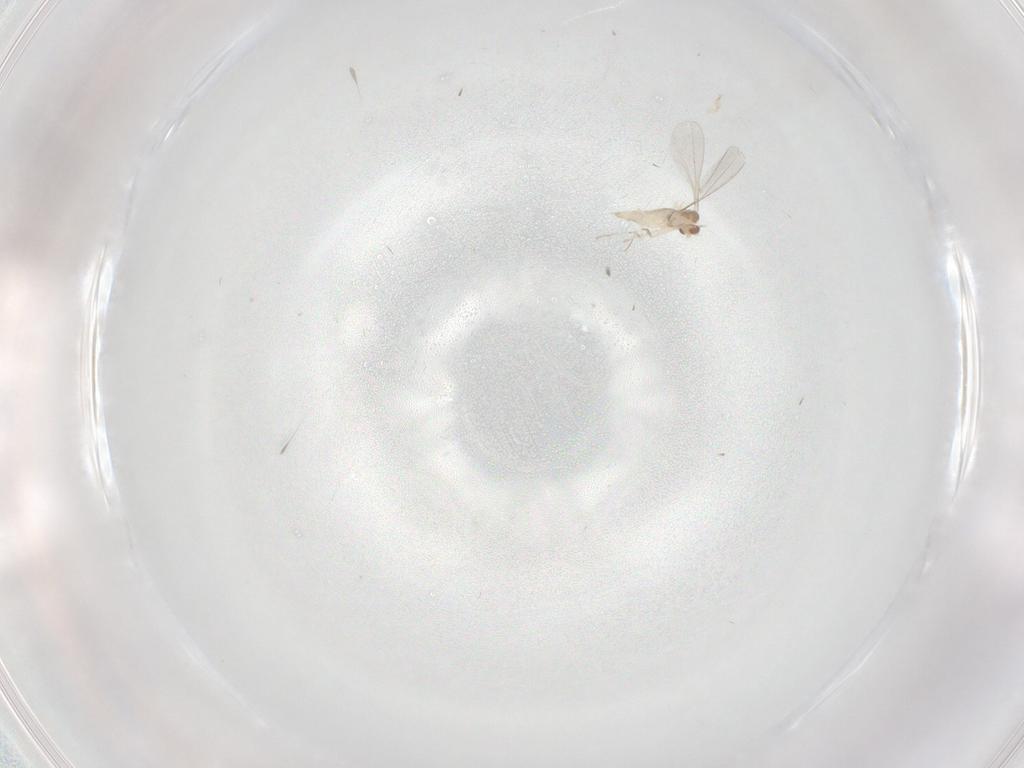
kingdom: Animalia
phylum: Arthropoda
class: Insecta
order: Diptera
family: Cecidomyiidae
